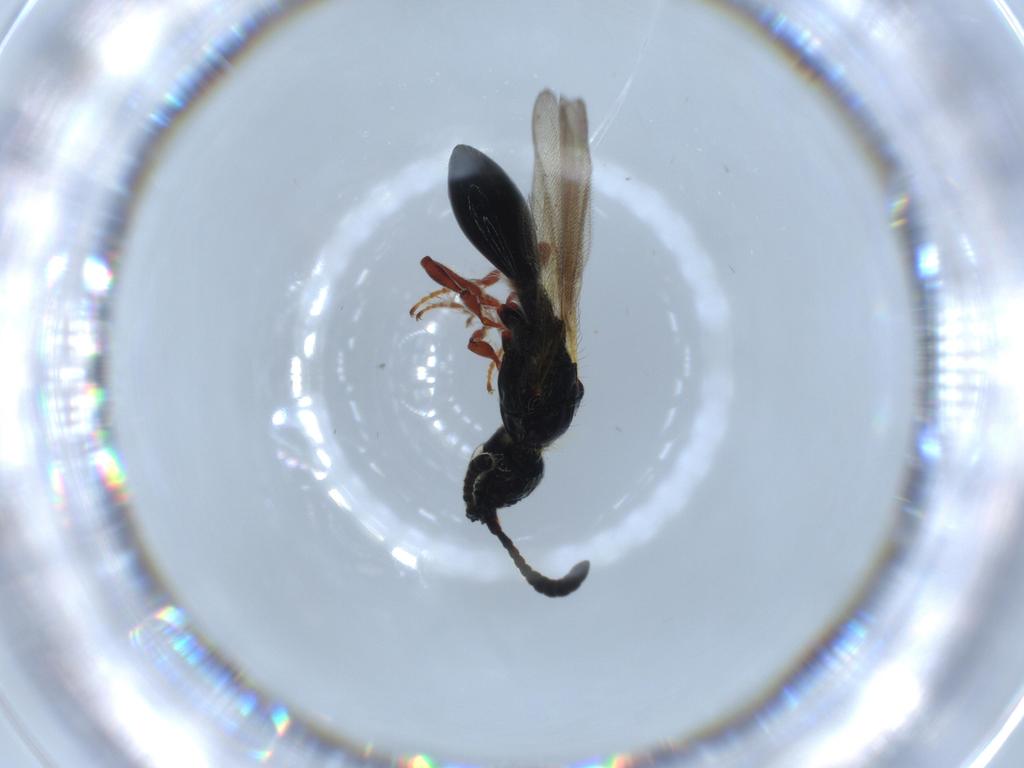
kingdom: Animalia
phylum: Arthropoda
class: Insecta
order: Hymenoptera
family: Diapriidae
